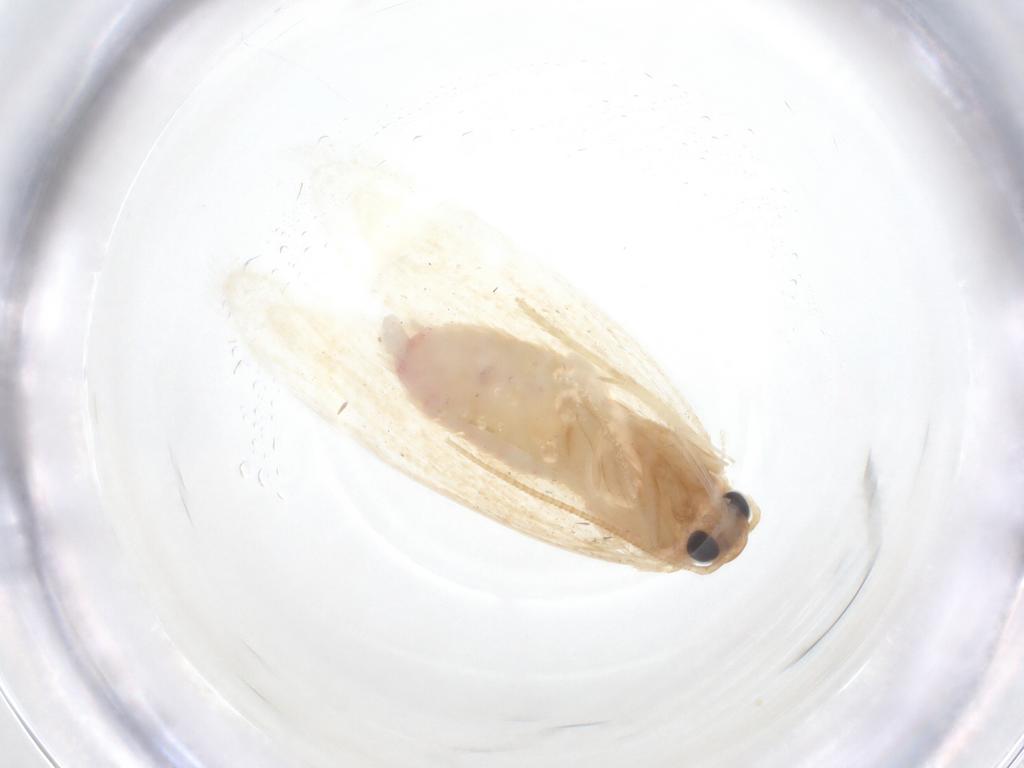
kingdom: Animalia
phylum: Arthropoda
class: Insecta
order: Lepidoptera
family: Autostichidae
